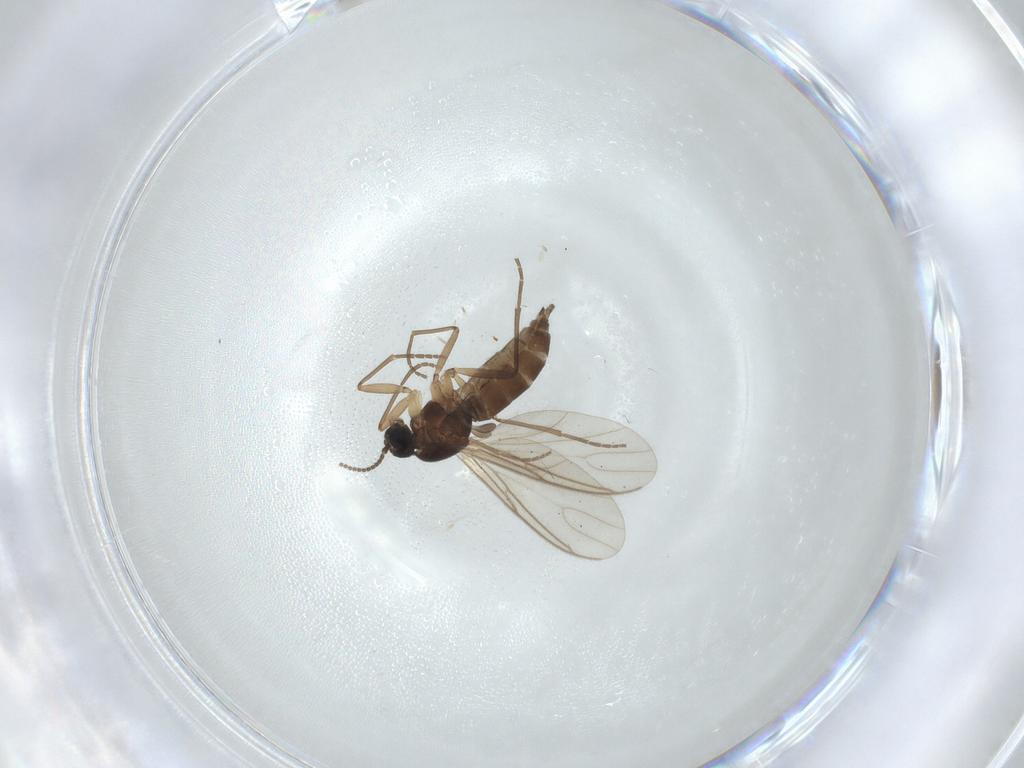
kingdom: Animalia
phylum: Arthropoda
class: Insecta
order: Diptera
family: Sciaridae
